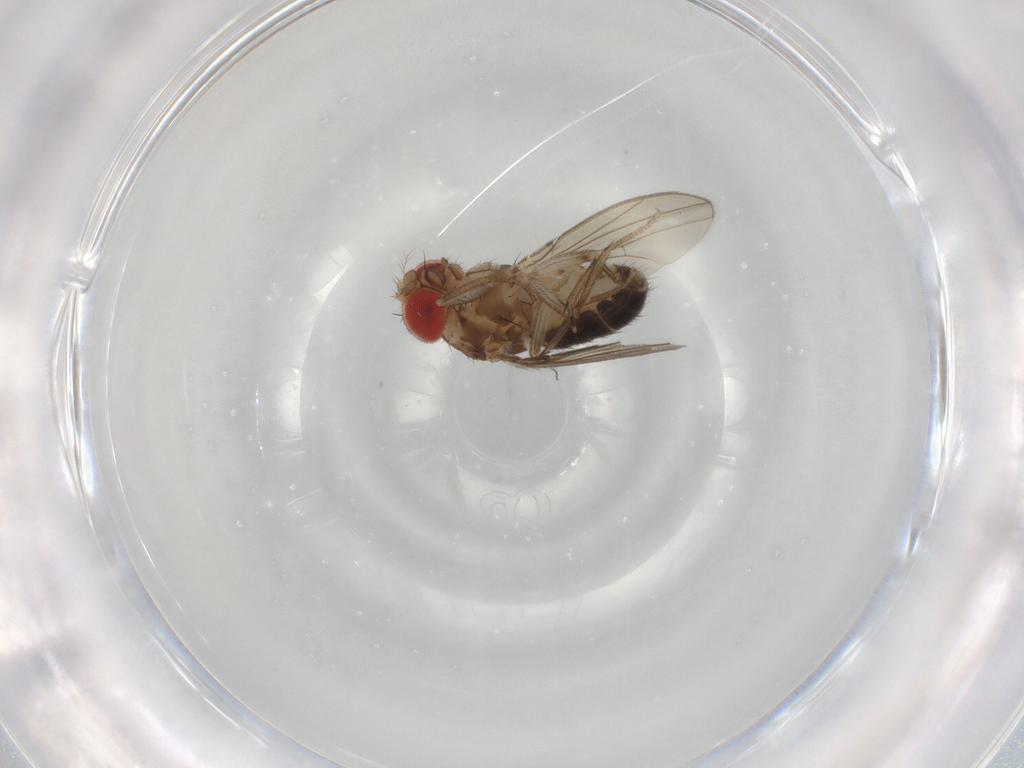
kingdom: Animalia
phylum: Arthropoda
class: Insecta
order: Diptera
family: Drosophilidae
